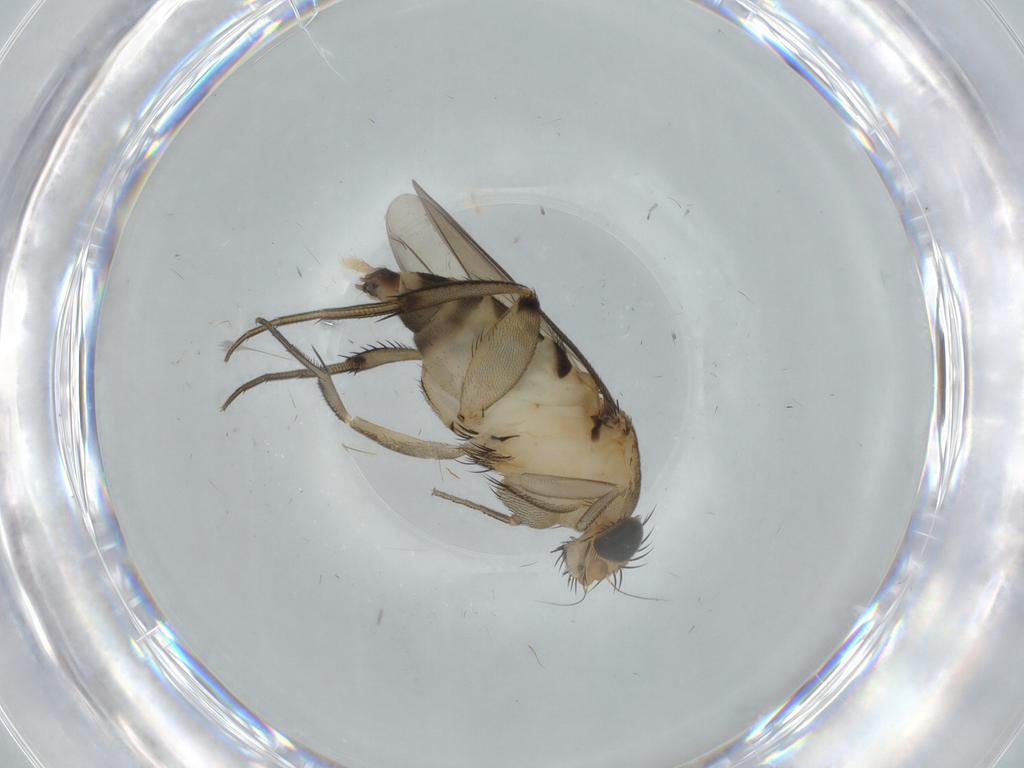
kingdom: Animalia
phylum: Arthropoda
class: Insecta
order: Diptera
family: Phoridae
